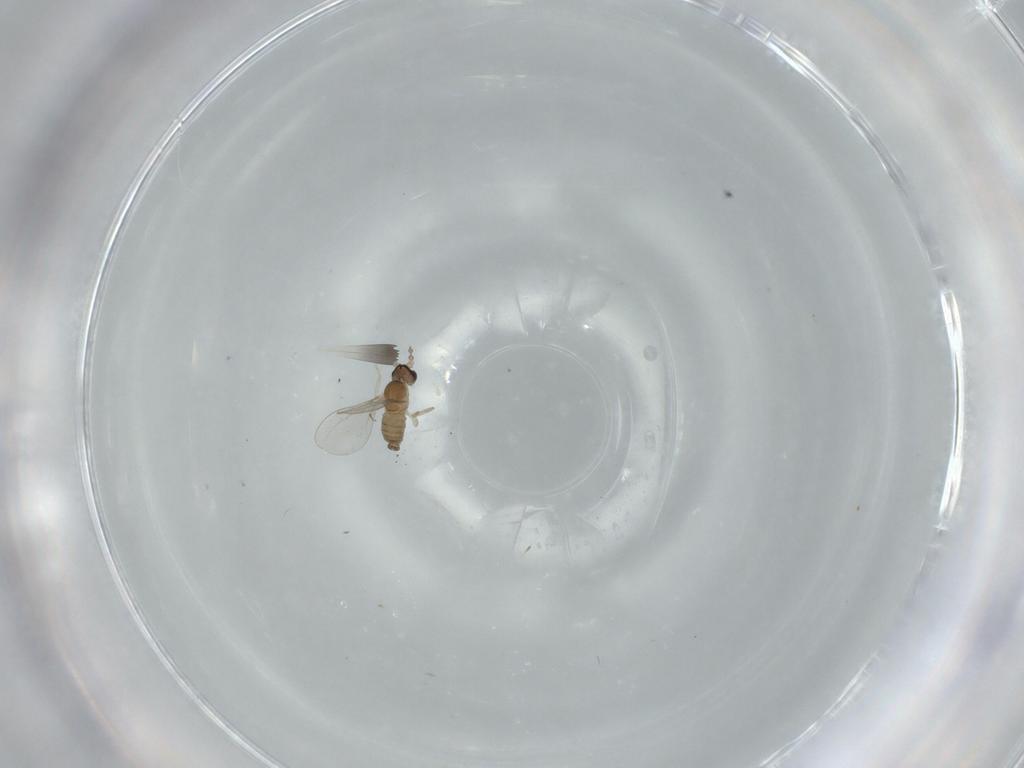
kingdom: Animalia
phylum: Arthropoda
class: Insecta
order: Diptera
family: Cecidomyiidae
